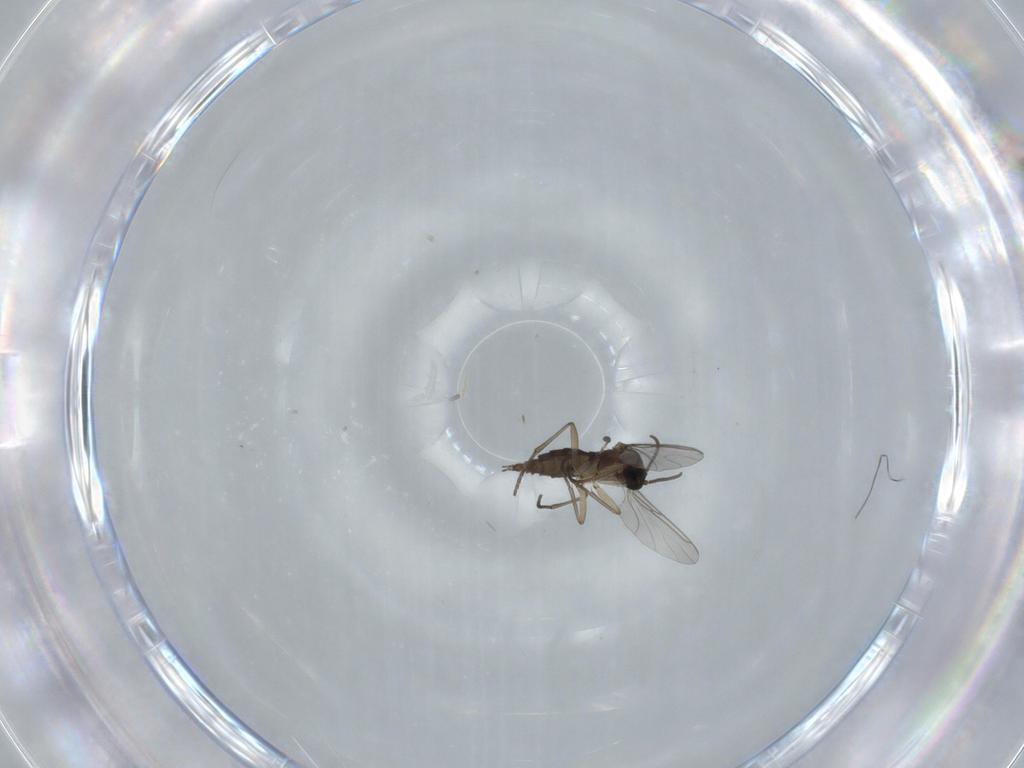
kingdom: Animalia
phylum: Arthropoda
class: Insecta
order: Diptera
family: Sciaridae
